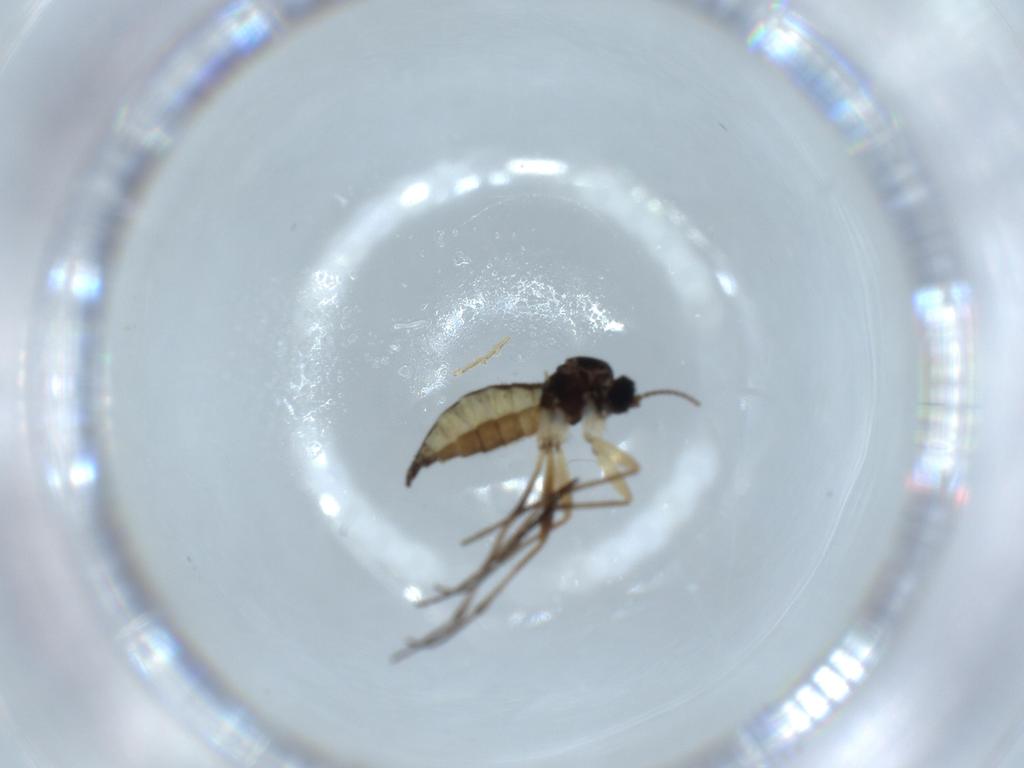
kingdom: Animalia
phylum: Arthropoda
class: Insecta
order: Diptera
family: Sciaridae
